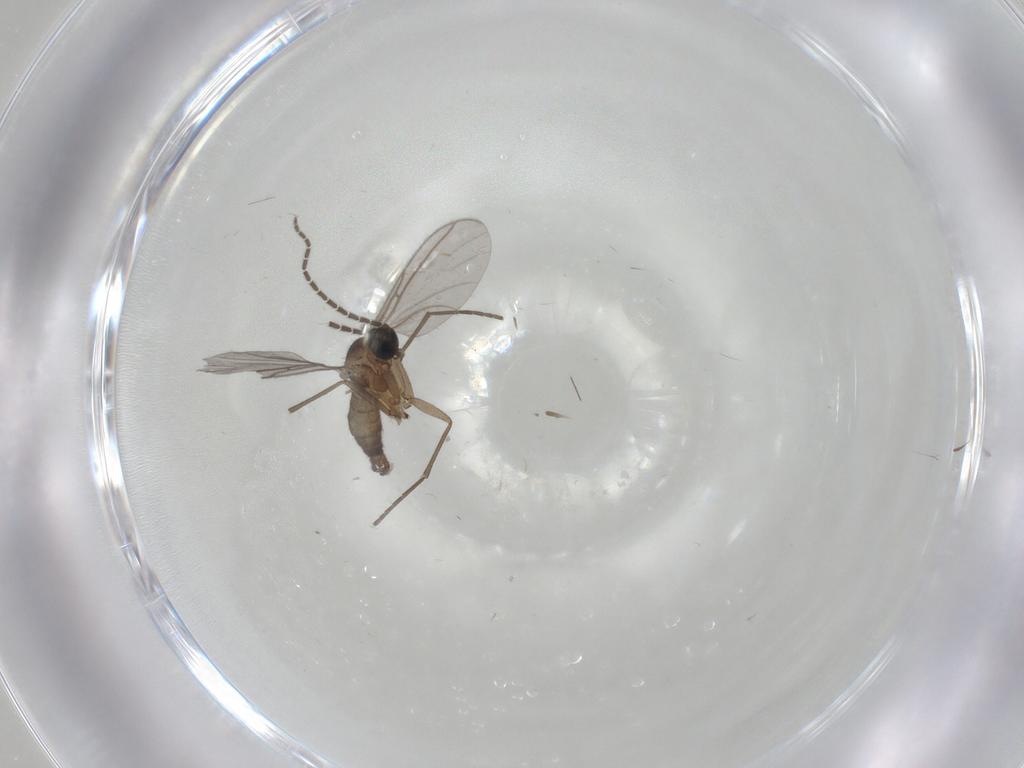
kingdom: Animalia
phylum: Arthropoda
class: Insecta
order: Diptera
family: Sciaridae
